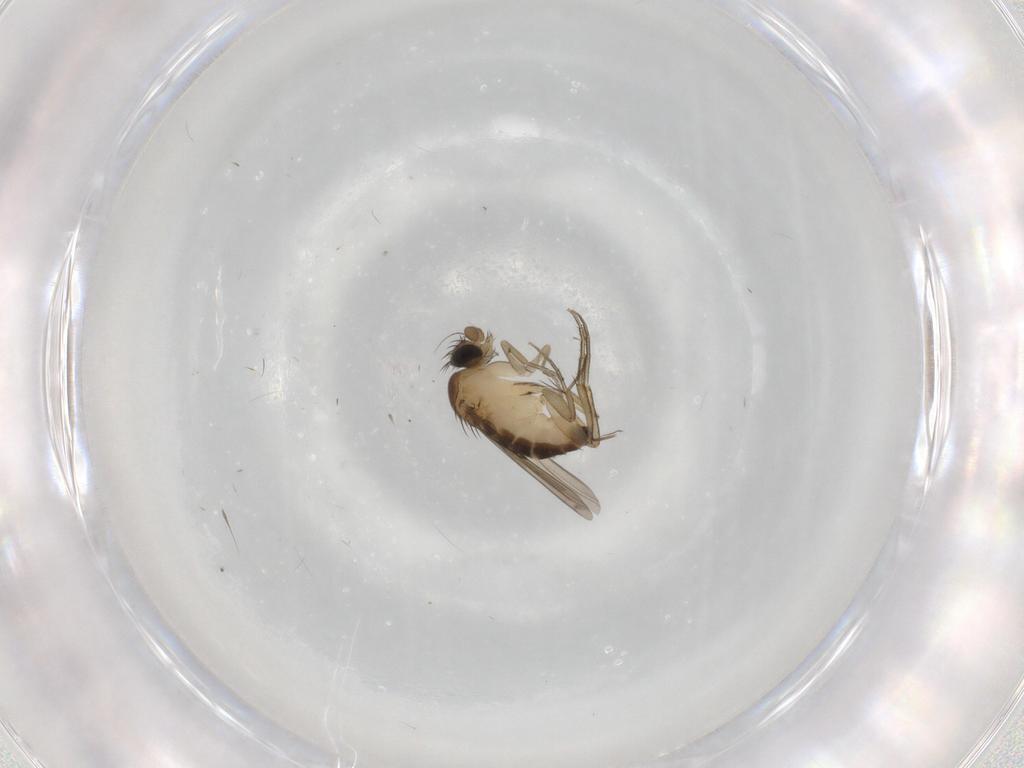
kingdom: Animalia
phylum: Arthropoda
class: Insecta
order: Diptera
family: Phoridae
